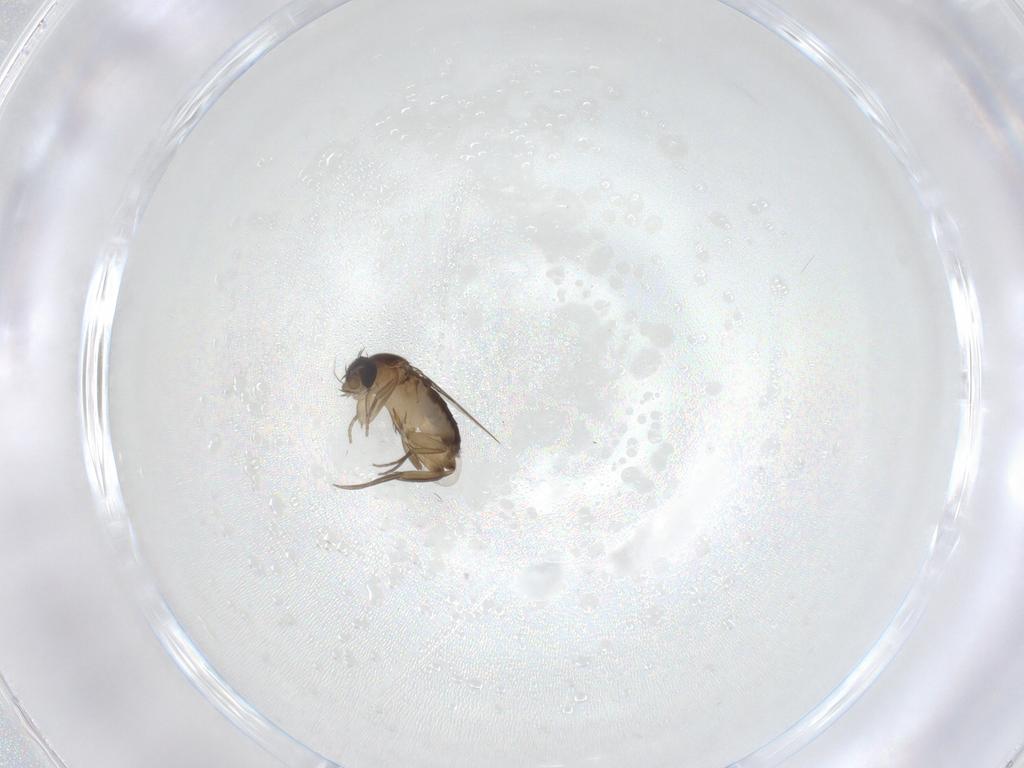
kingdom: Animalia
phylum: Arthropoda
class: Insecta
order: Diptera
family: Phoridae
